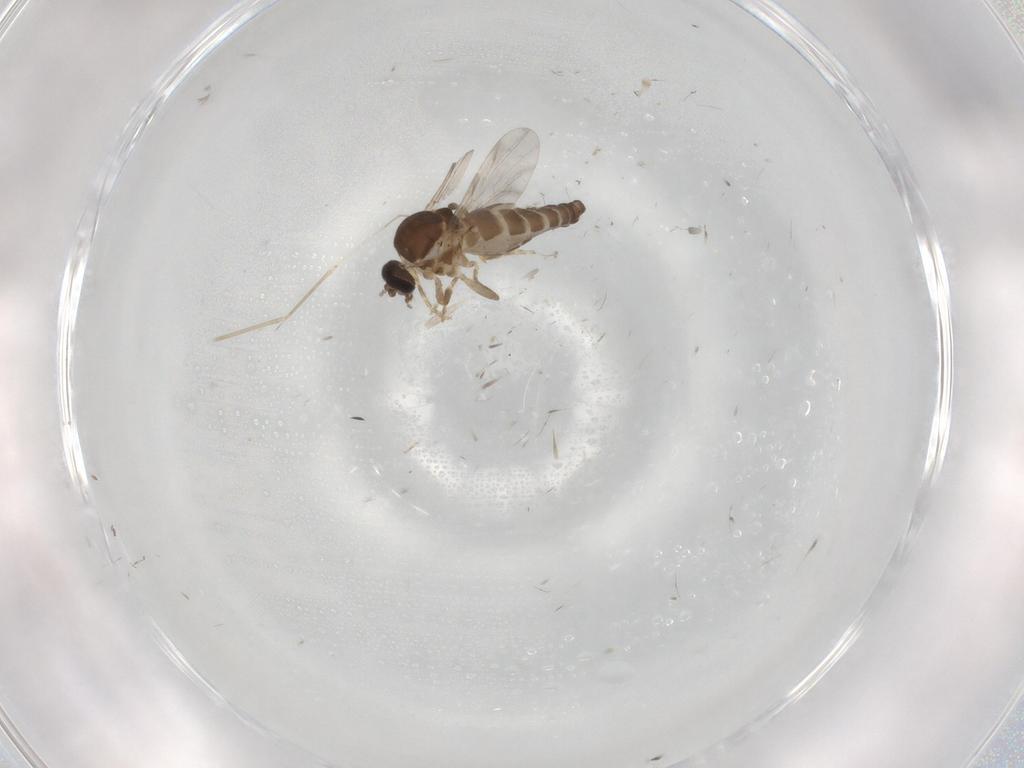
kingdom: Animalia
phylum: Arthropoda
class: Insecta
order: Diptera
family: Ceratopogonidae
